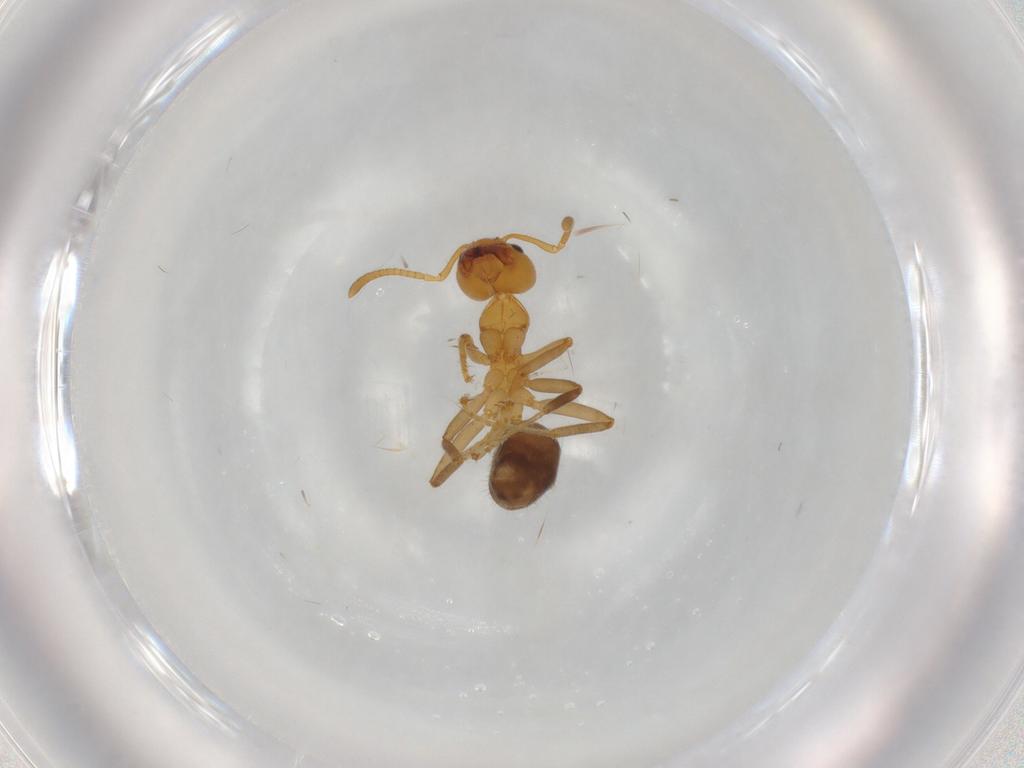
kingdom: Animalia
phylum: Arthropoda
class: Insecta
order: Hymenoptera
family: Formicidae
